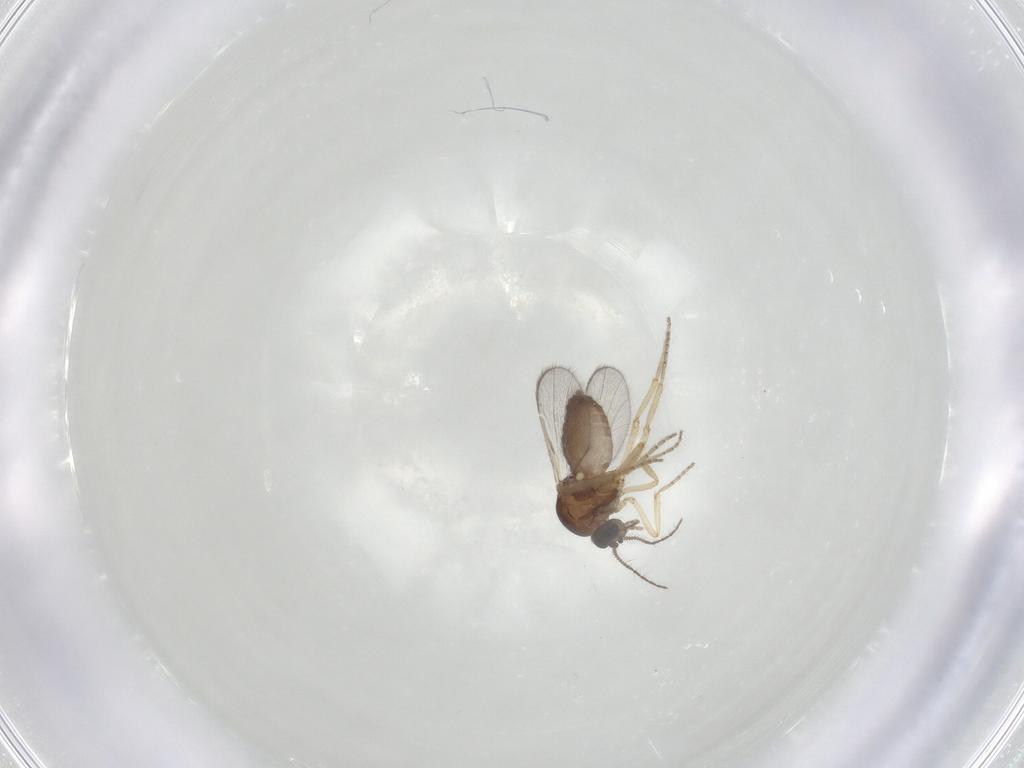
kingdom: Animalia
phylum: Arthropoda
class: Insecta
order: Diptera
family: Ceratopogonidae
